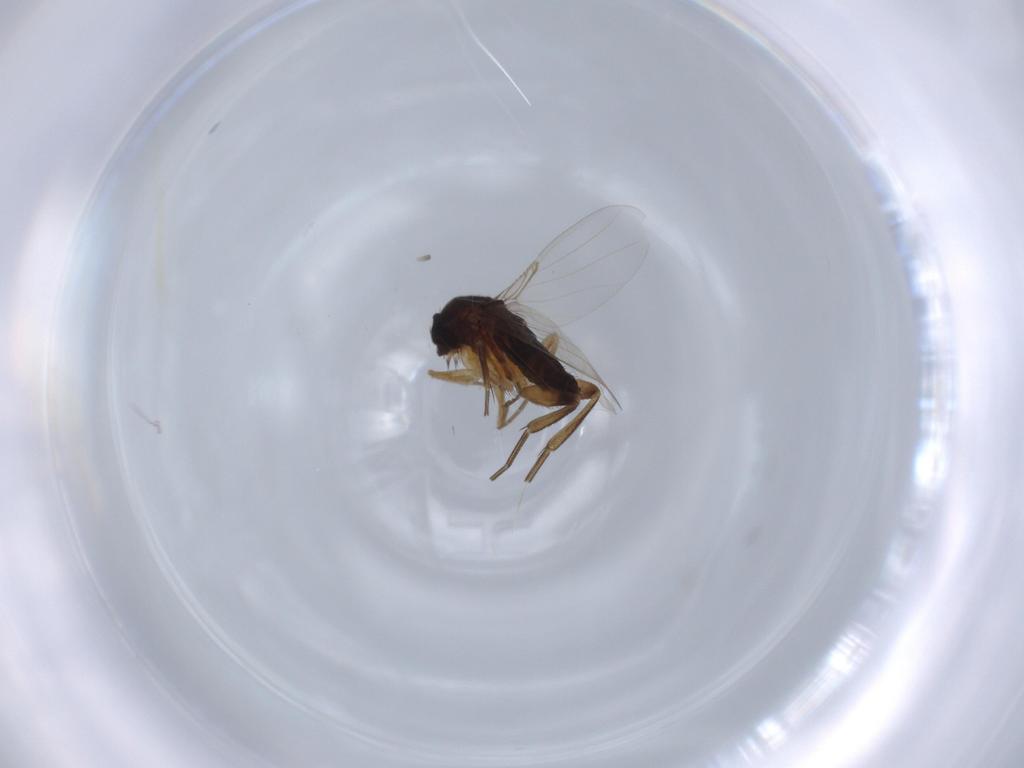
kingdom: Animalia
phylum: Arthropoda
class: Insecta
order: Diptera
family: Phoridae
